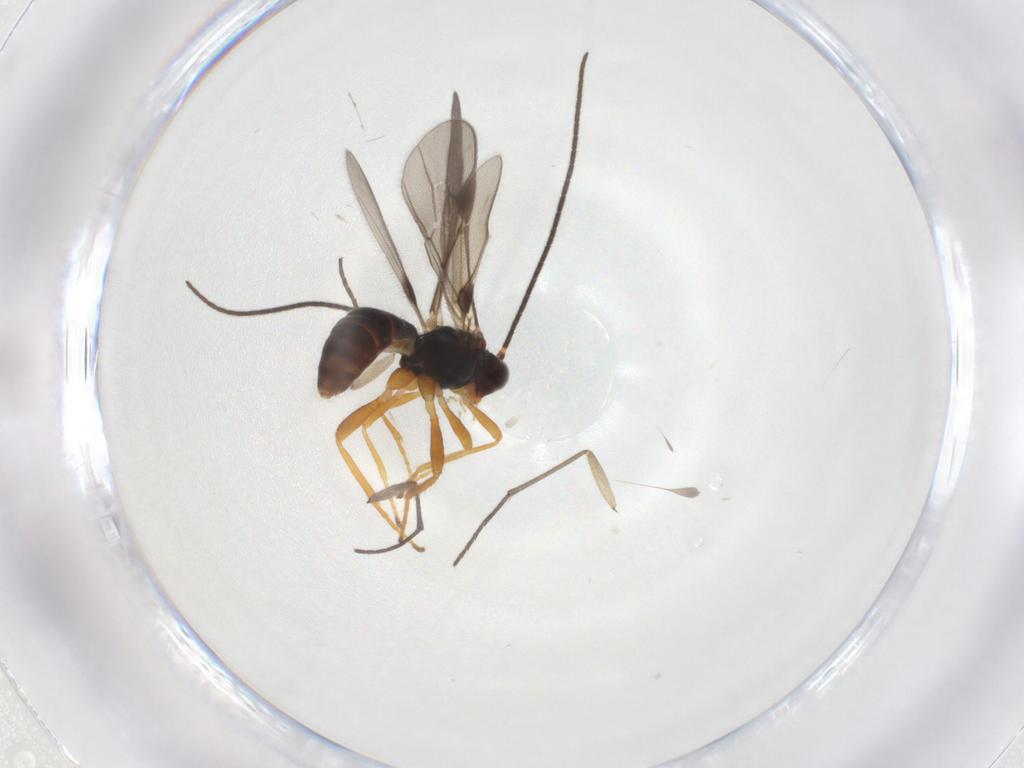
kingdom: Animalia
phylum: Arthropoda
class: Insecta
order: Hymenoptera
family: Braconidae
